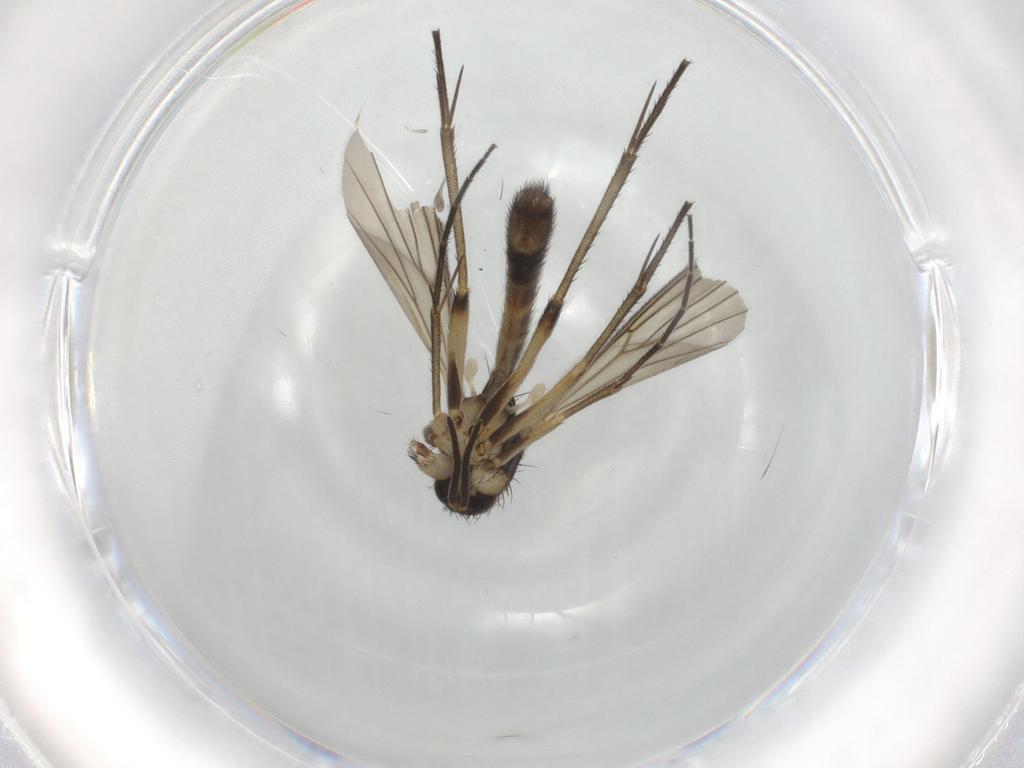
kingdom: Animalia
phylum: Arthropoda
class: Insecta
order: Diptera
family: Mycetophilidae
